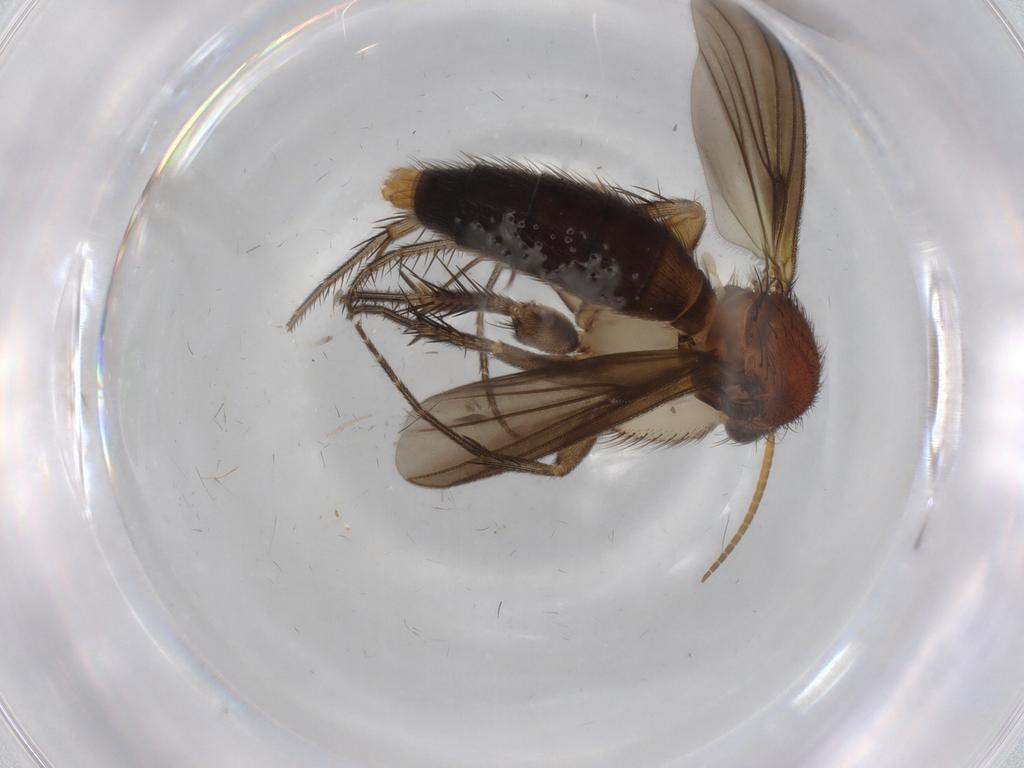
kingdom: Animalia
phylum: Arthropoda
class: Insecta
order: Diptera
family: Mycetophilidae
